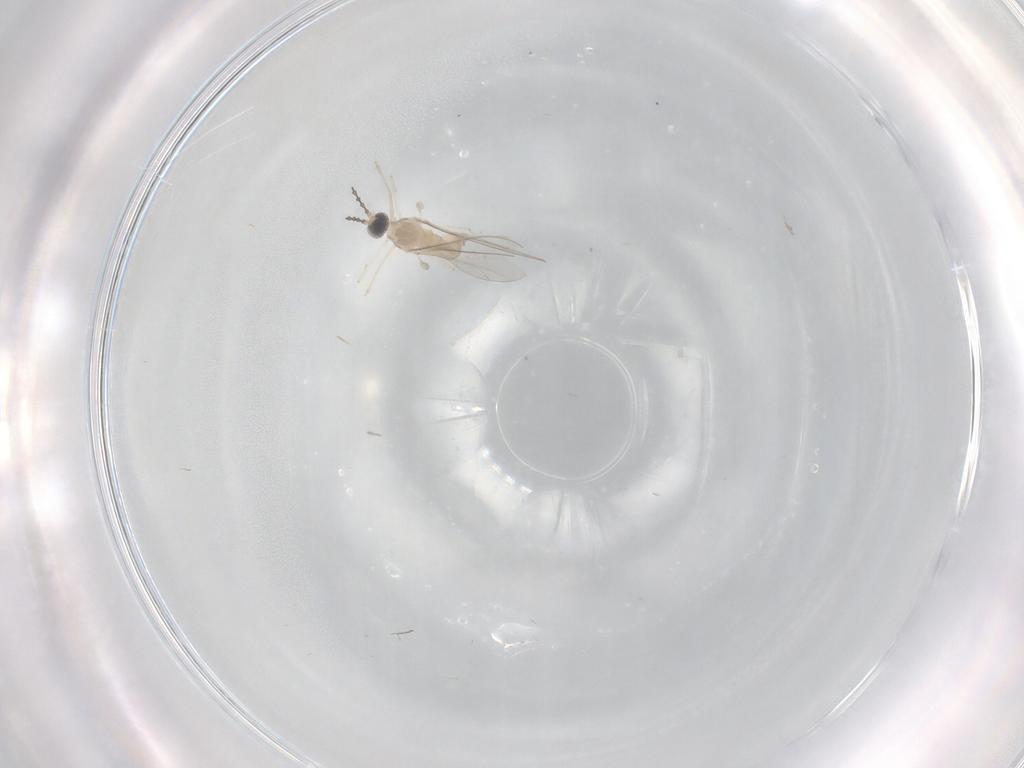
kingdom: Animalia
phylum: Arthropoda
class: Insecta
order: Diptera
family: Cecidomyiidae
